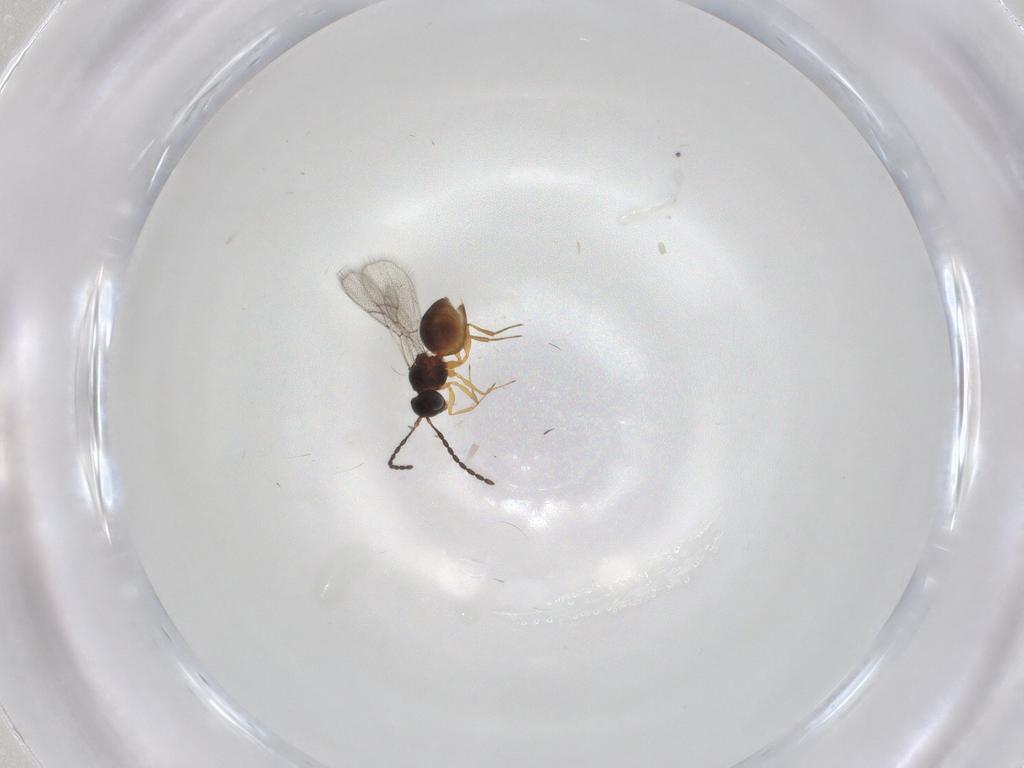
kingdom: Animalia
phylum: Arthropoda
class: Insecta
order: Hymenoptera
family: Figitidae
